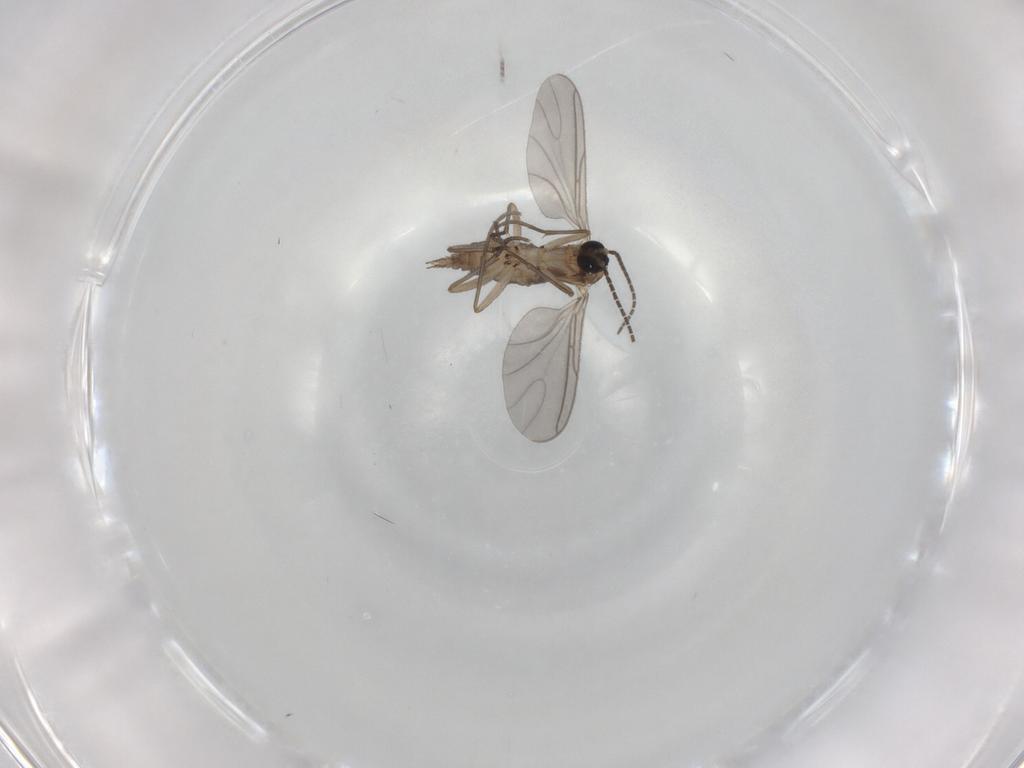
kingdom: Animalia
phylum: Arthropoda
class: Insecta
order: Diptera
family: Sciaridae
